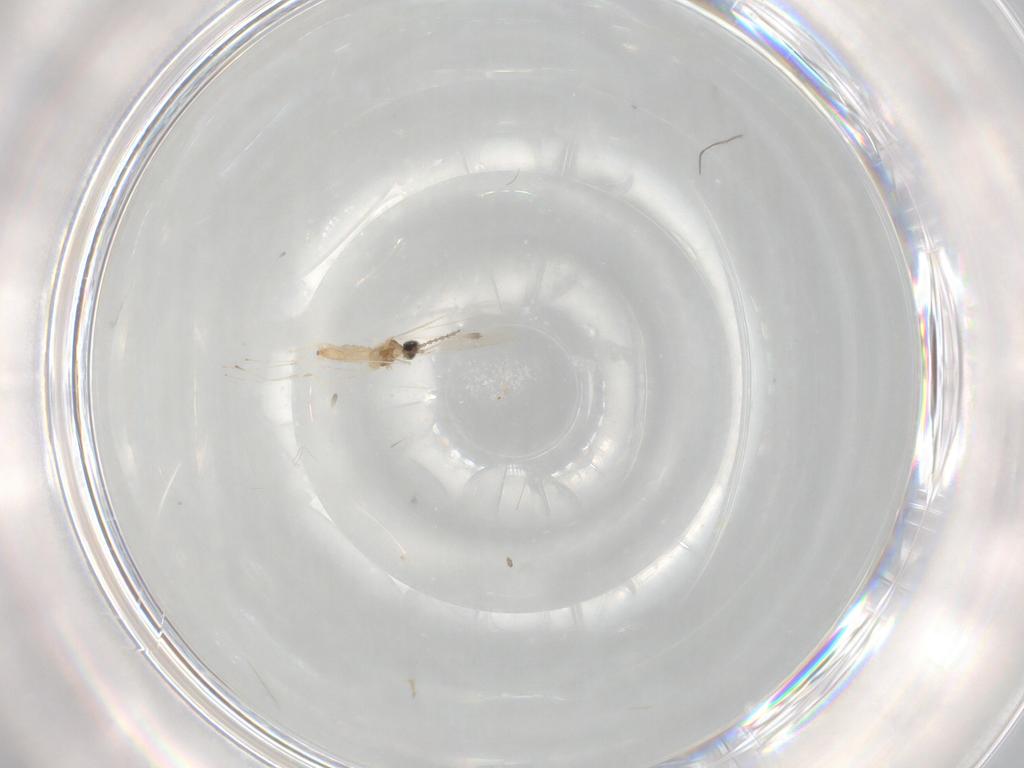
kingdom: Animalia
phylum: Arthropoda
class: Insecta
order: Diptera
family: Cecidomyiidae
